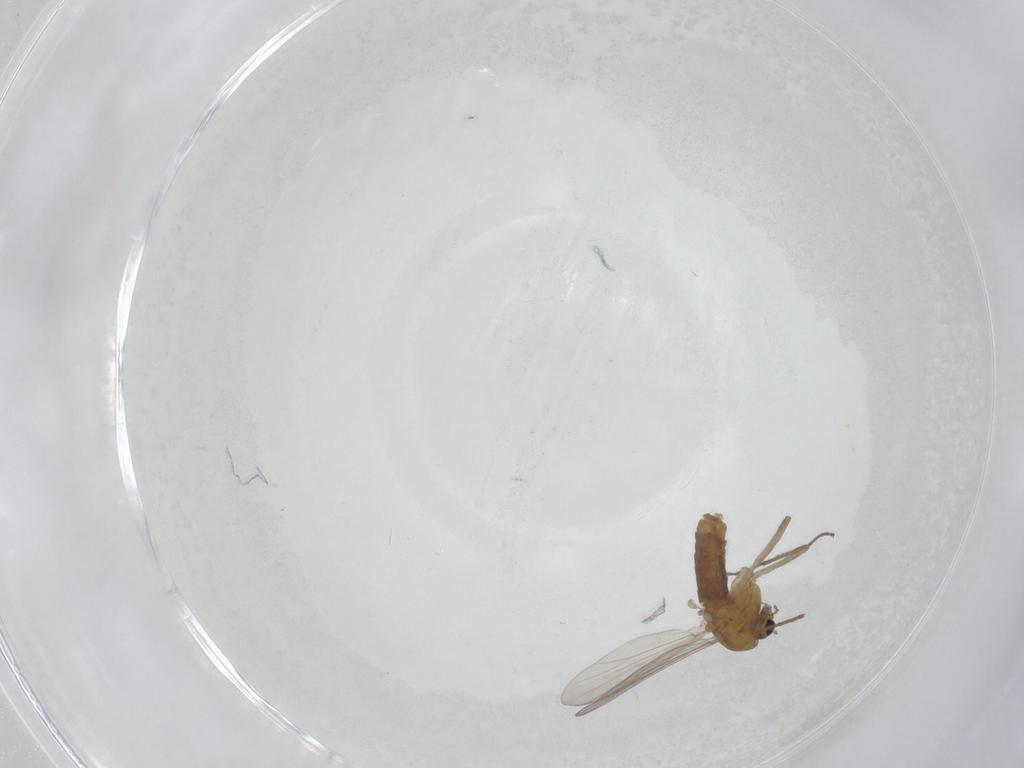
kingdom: Animalia
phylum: Arthropoda
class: Insecta
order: Diptera
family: Chironomidae
